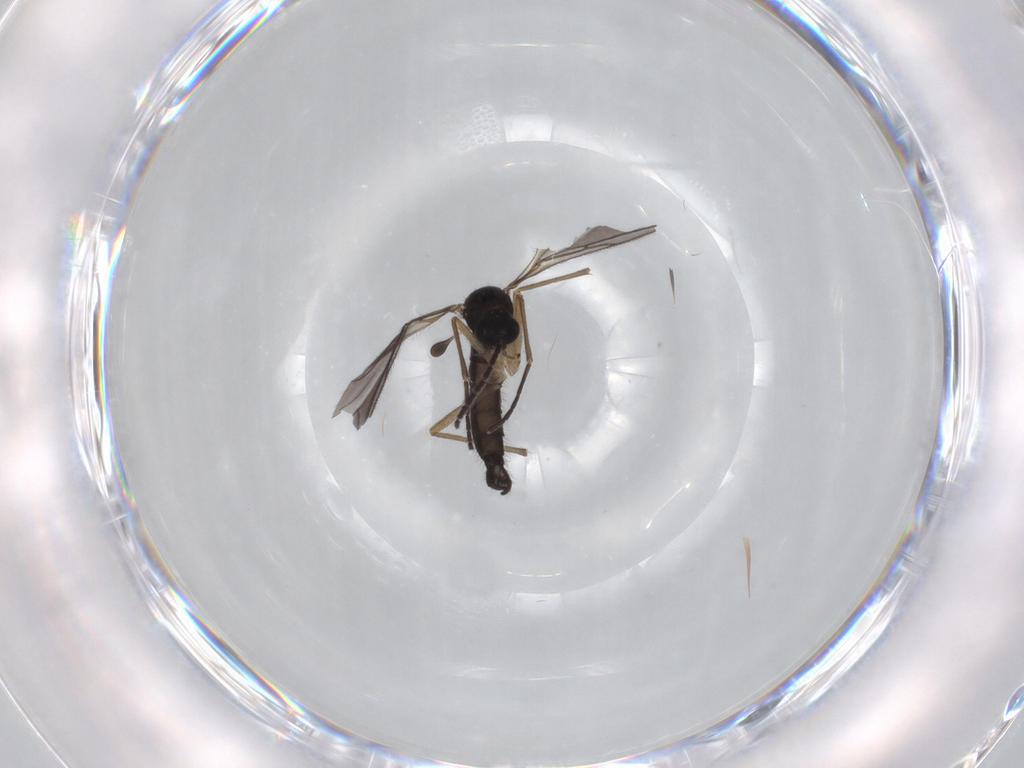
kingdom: Animalia
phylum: Arthropoda
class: Insecta
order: Diptera
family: Sciaridae
